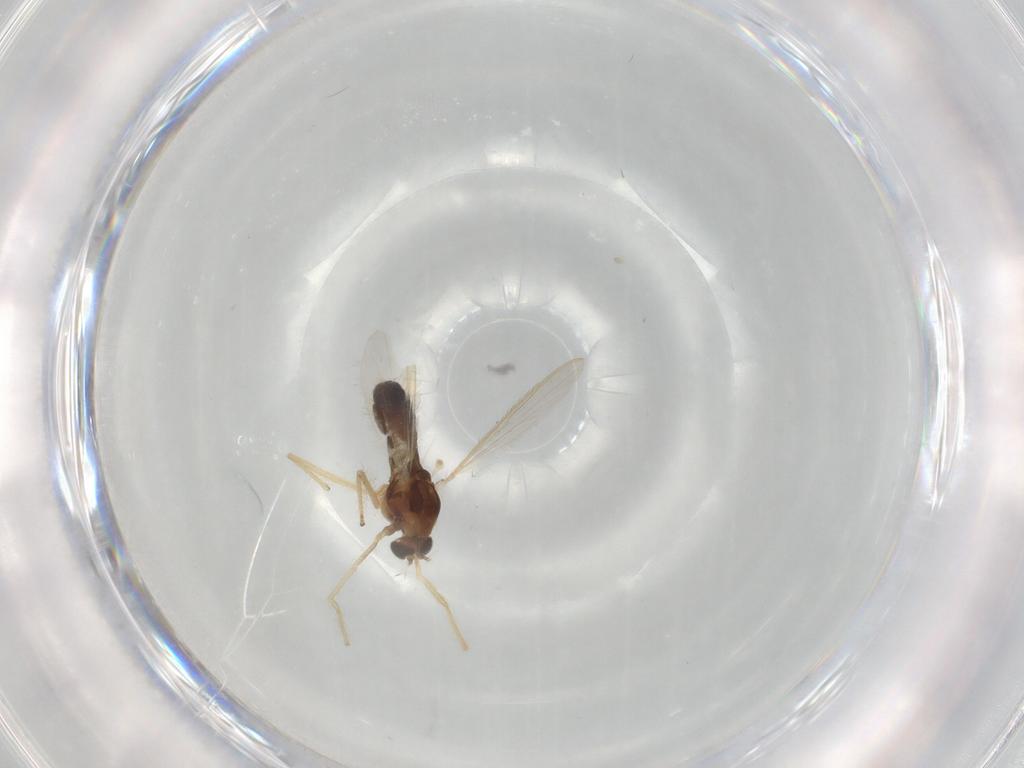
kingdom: Animalia
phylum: Arthropoda
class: Insecta
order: Diptera
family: Chironomidae
